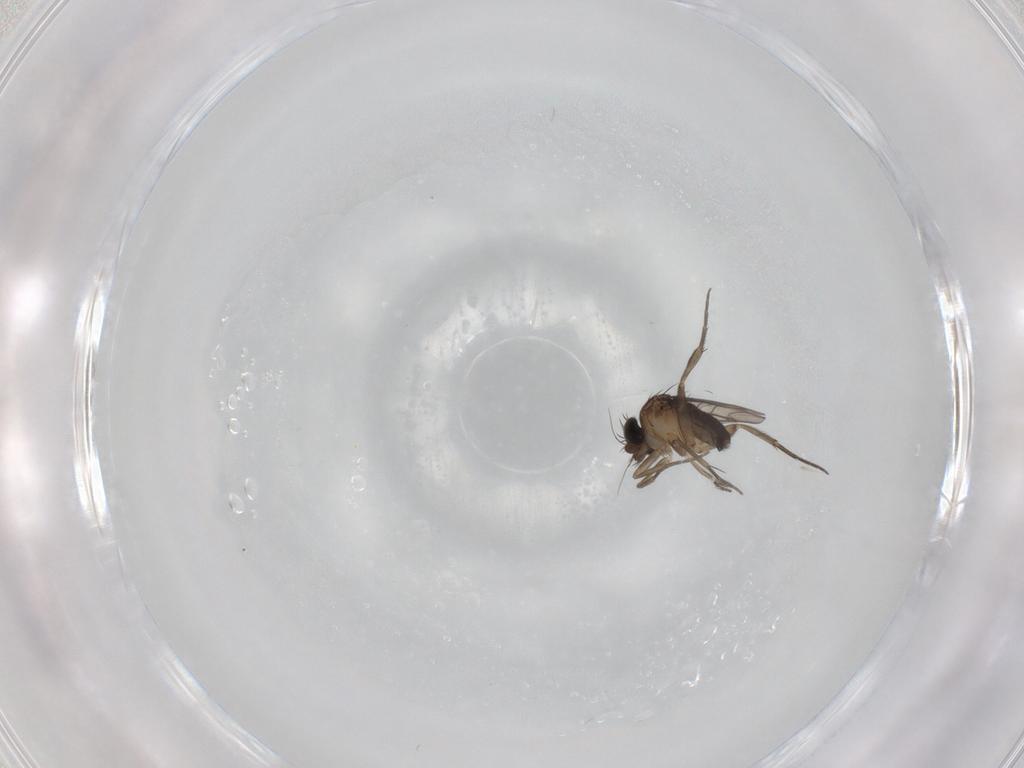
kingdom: Animalia
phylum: Arthropoda
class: Insecta
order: Diptera
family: Phoridae
